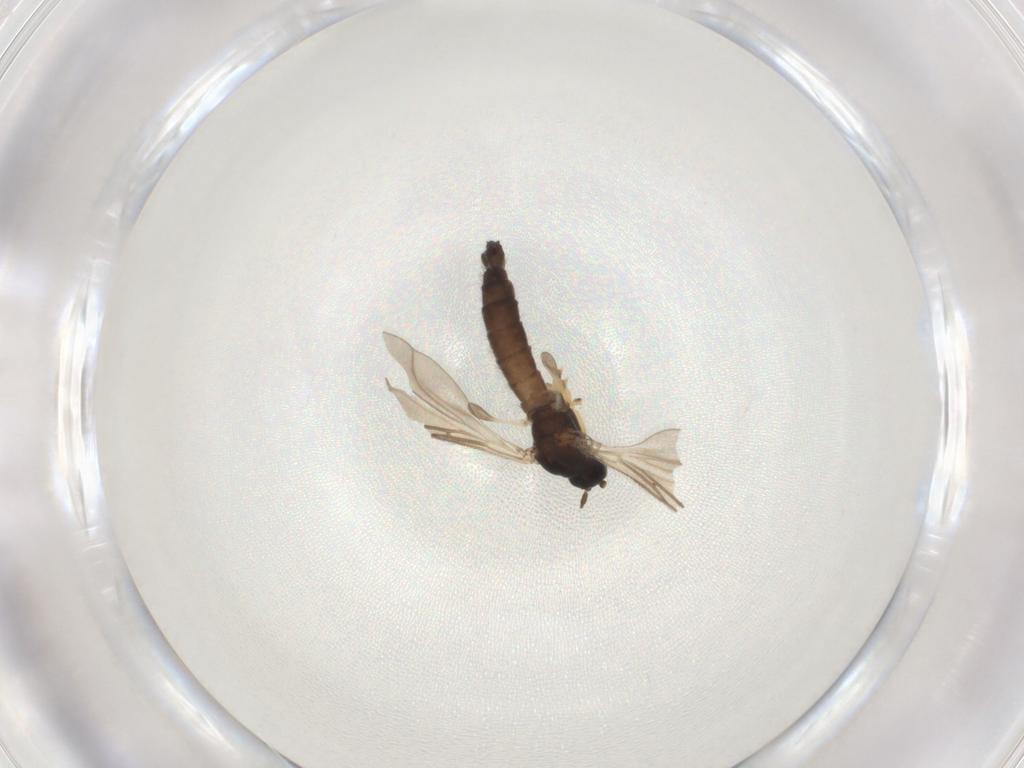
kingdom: Animalia
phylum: Arthropoda
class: Insecta
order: Diptera
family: Sciaridae
